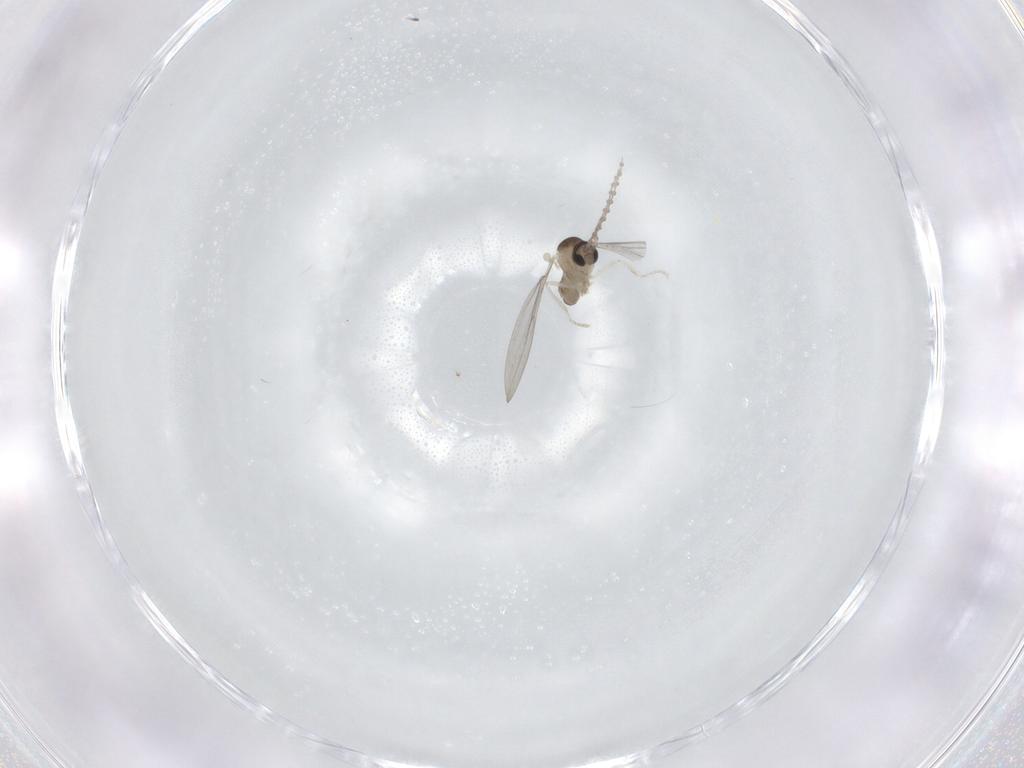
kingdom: Animalia
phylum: Arthropoda
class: Insecta
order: Diptera
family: Cecidomyiidae
